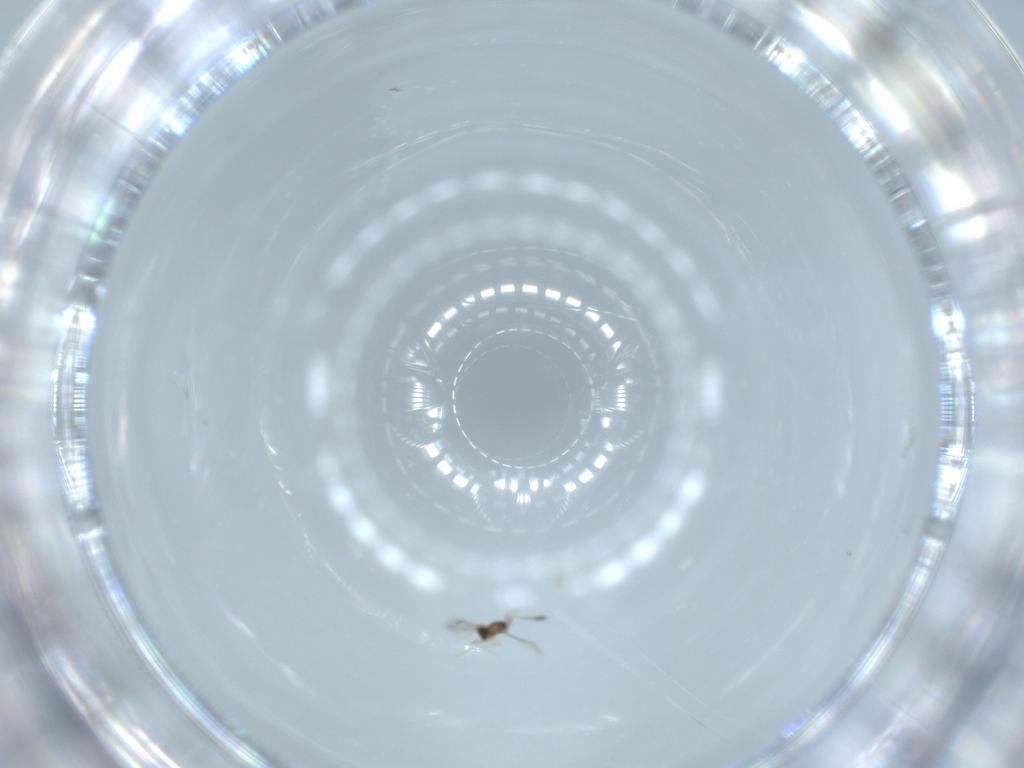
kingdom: Animalia
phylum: Arthropoda
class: Insecta
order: Hymenoptera
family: Mymaridae
